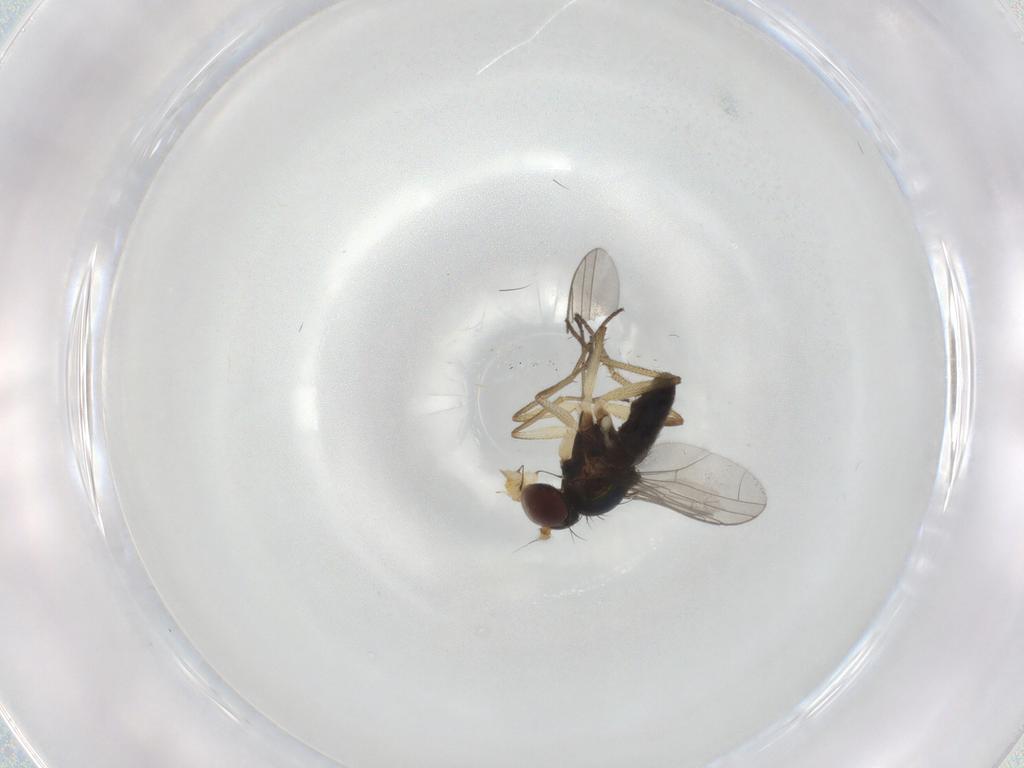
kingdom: Animalia
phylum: Arthropoda
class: Insecta
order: Diptera
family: Dolichopodidae
